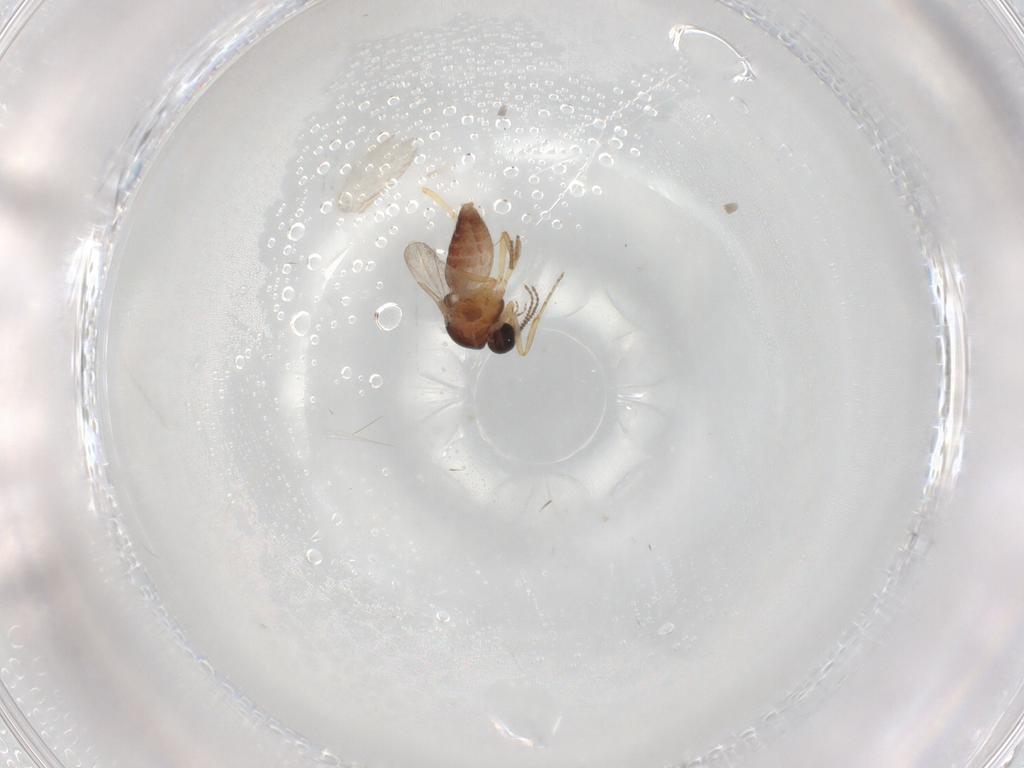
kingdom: Animalia
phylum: Arthropoda
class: Insecta
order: Diptera
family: Ceratopogonidae
